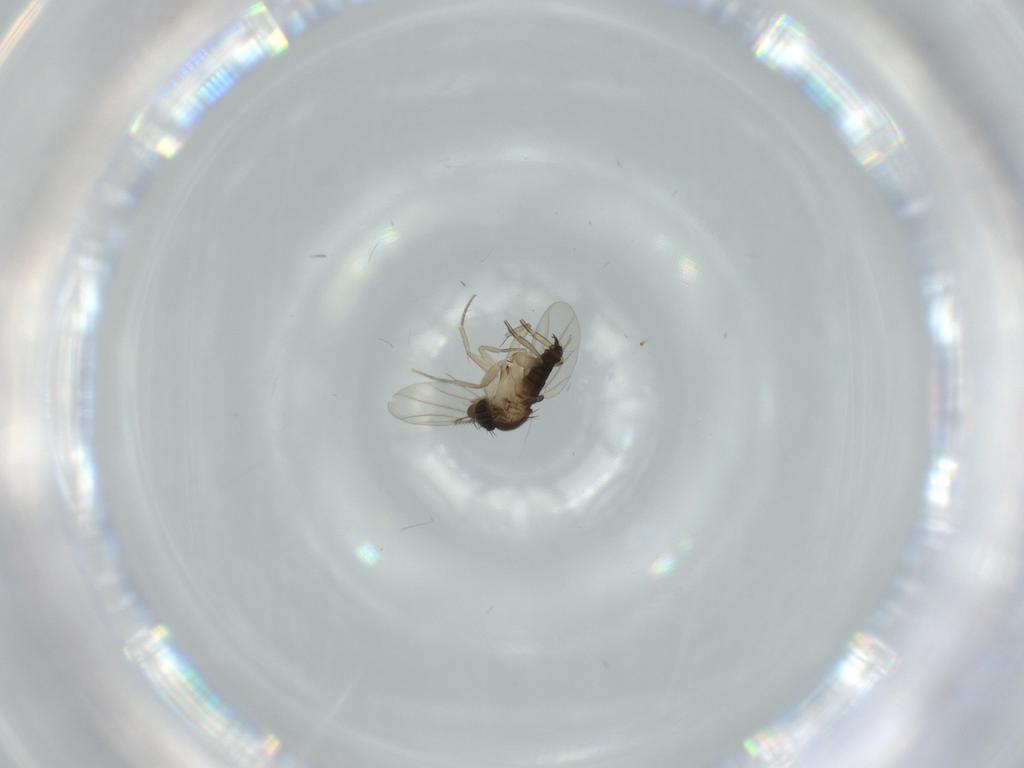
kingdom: Animalia
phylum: Arthropoda
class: Insecta
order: Diptera
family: Phoridae
